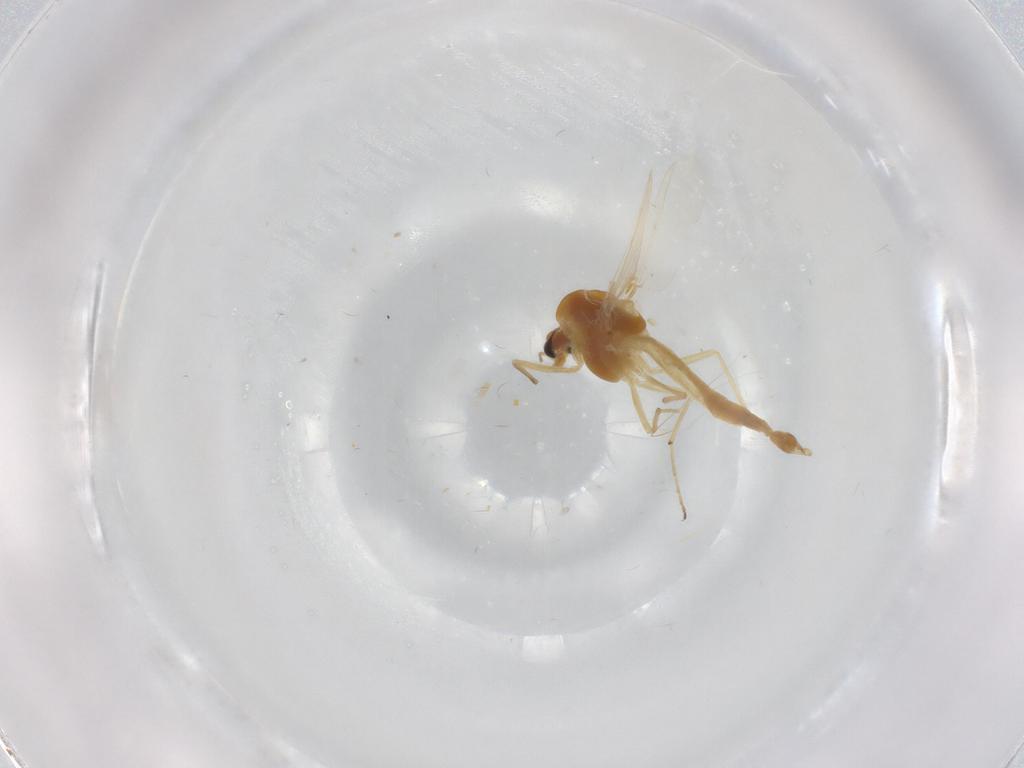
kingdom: Animalia
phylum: Arthropoda
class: Insecta
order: Diptera
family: Chironomidae
